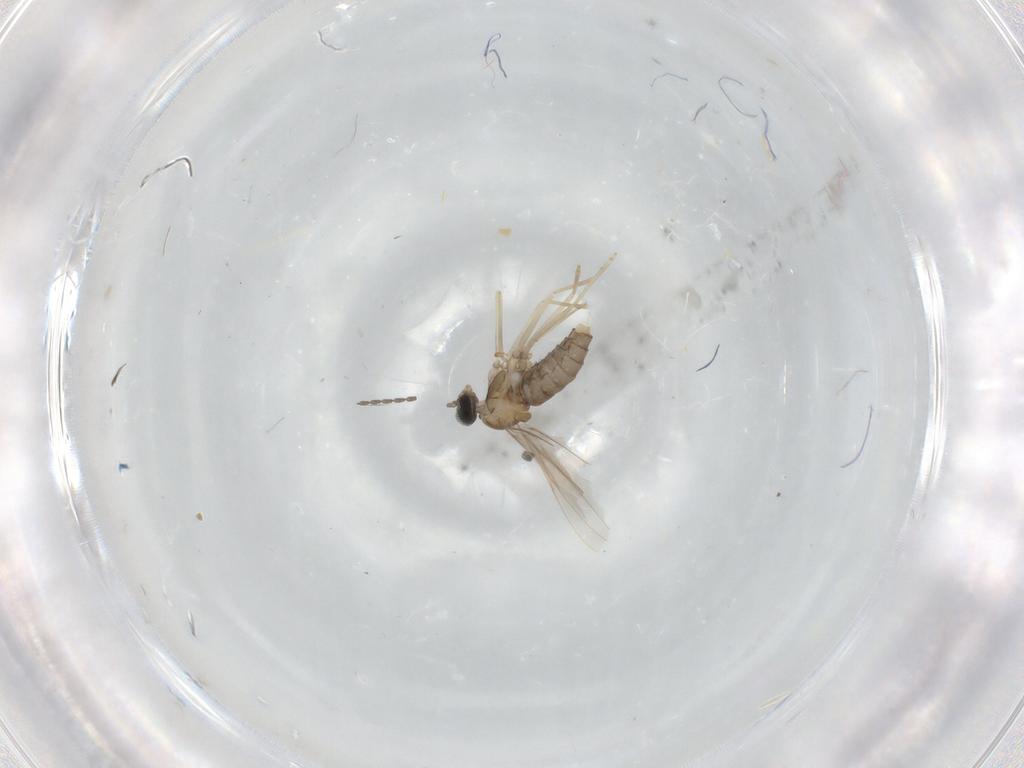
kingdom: Animalia
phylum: Arthropoda
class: Insecta
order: Diptera
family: Cecidomyiidae
